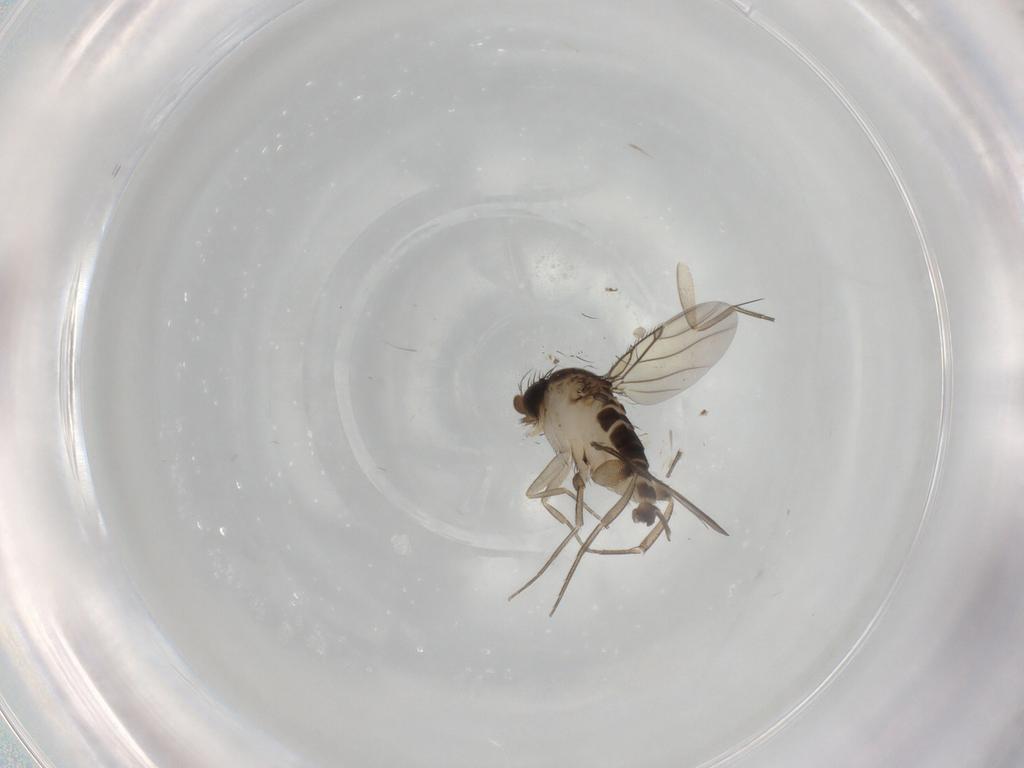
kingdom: Animalia
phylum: Arthropoda
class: Insecta
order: Diptera
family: Phoridae
